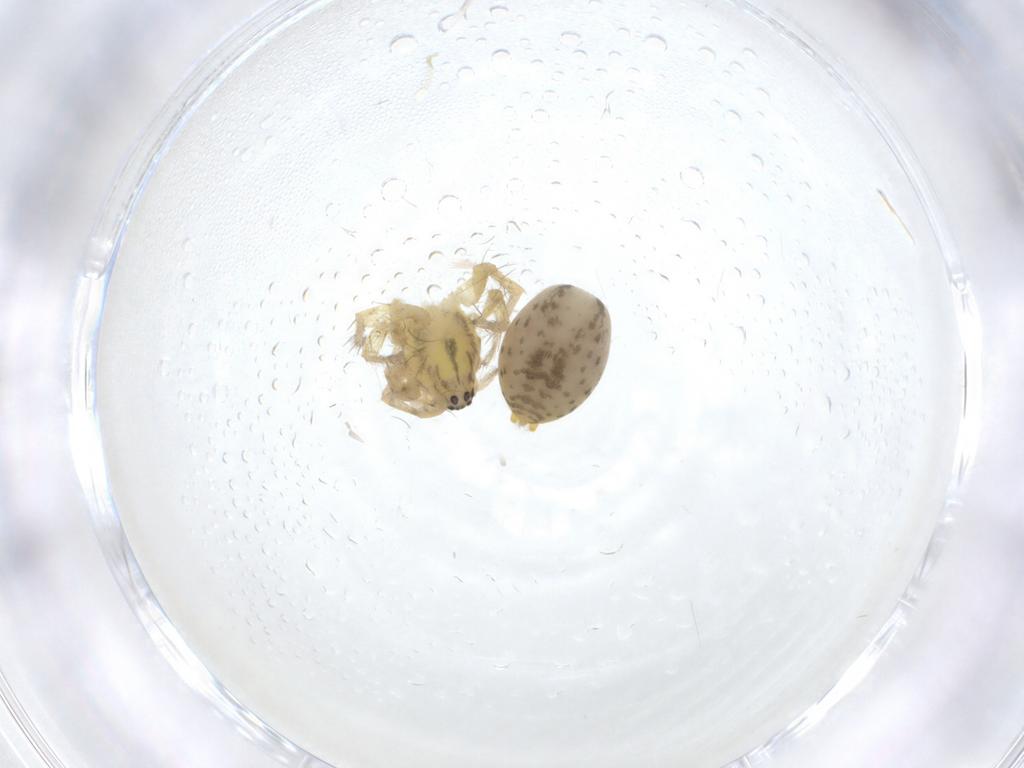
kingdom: Animalia
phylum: Arthropoda
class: Arachnida
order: Araneae
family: Anyphaenidae
